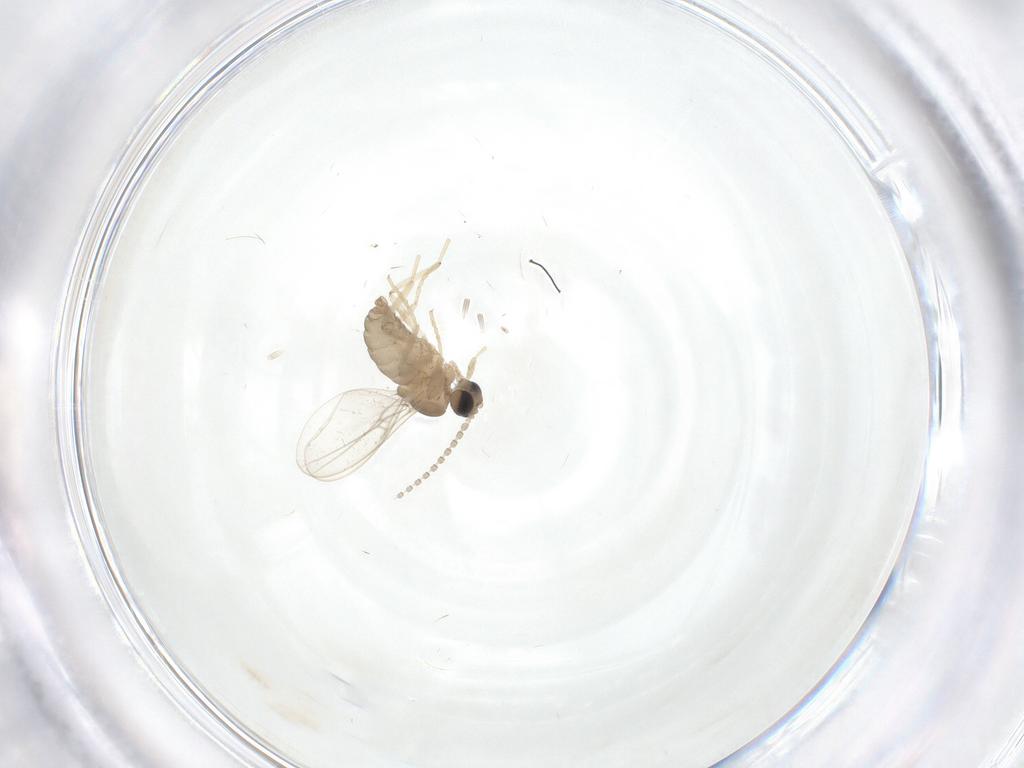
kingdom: Animalia
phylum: Arthropoda
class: Insecta
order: Diptera
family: Cecidomyiidae
